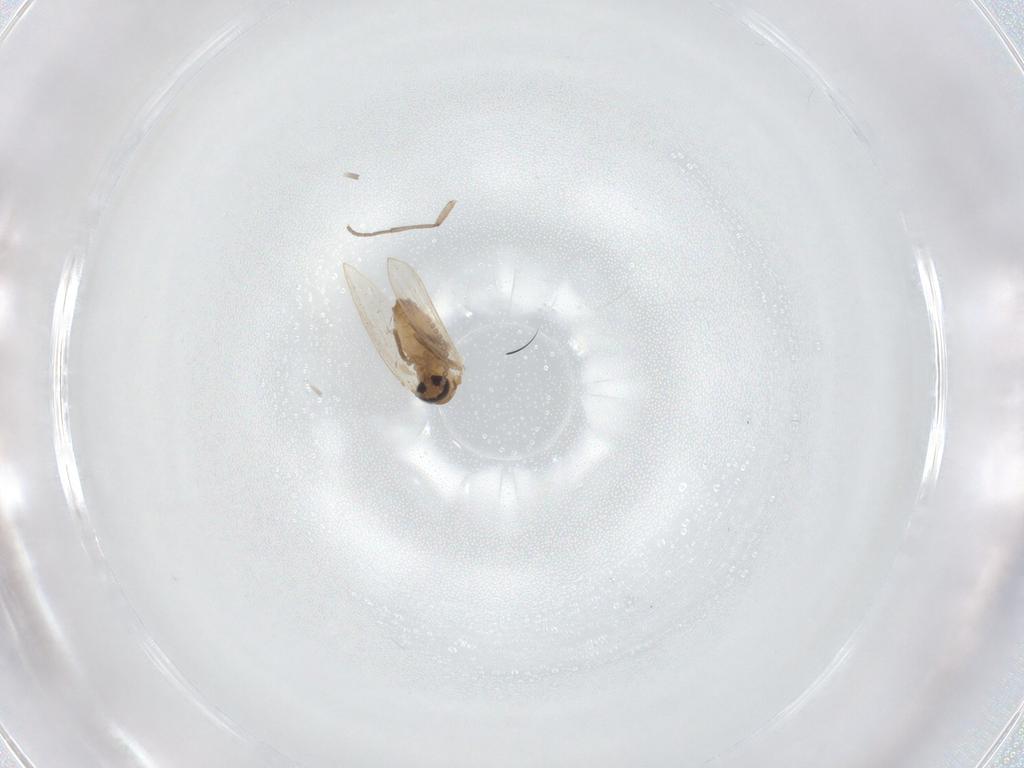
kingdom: Animalia
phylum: Arthropoda
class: Insecta
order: Diptera
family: Sciaridae
